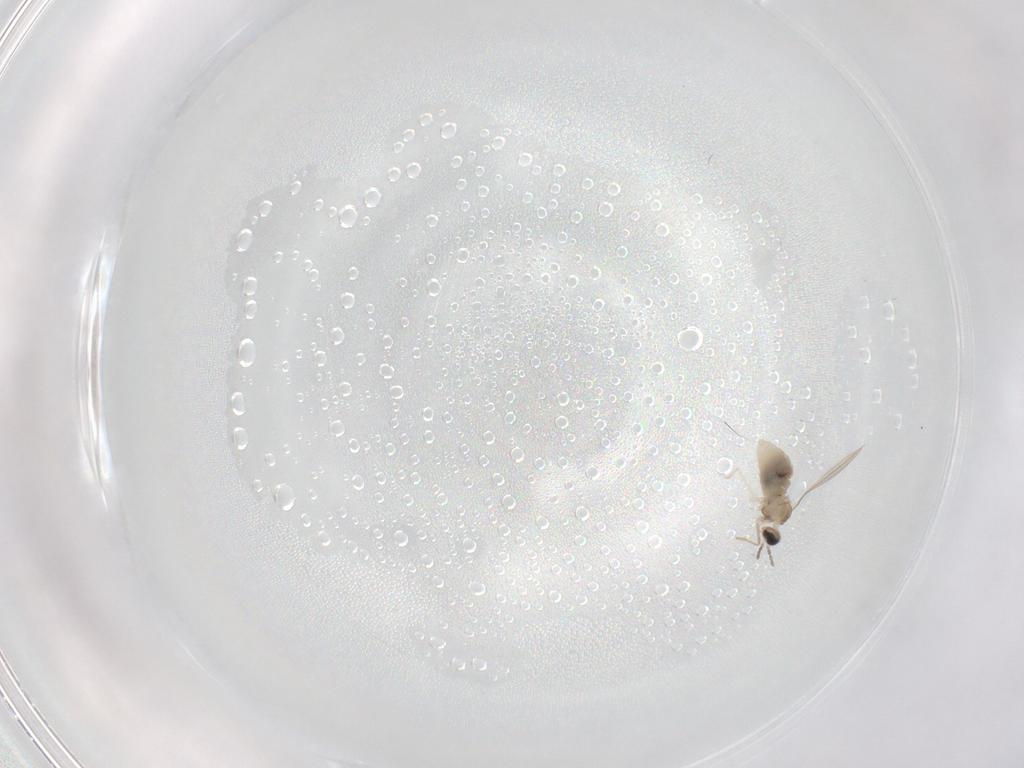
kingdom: Animalia
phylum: Arthropoda
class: Insecta
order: Diptera
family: Cecidomyiidae
